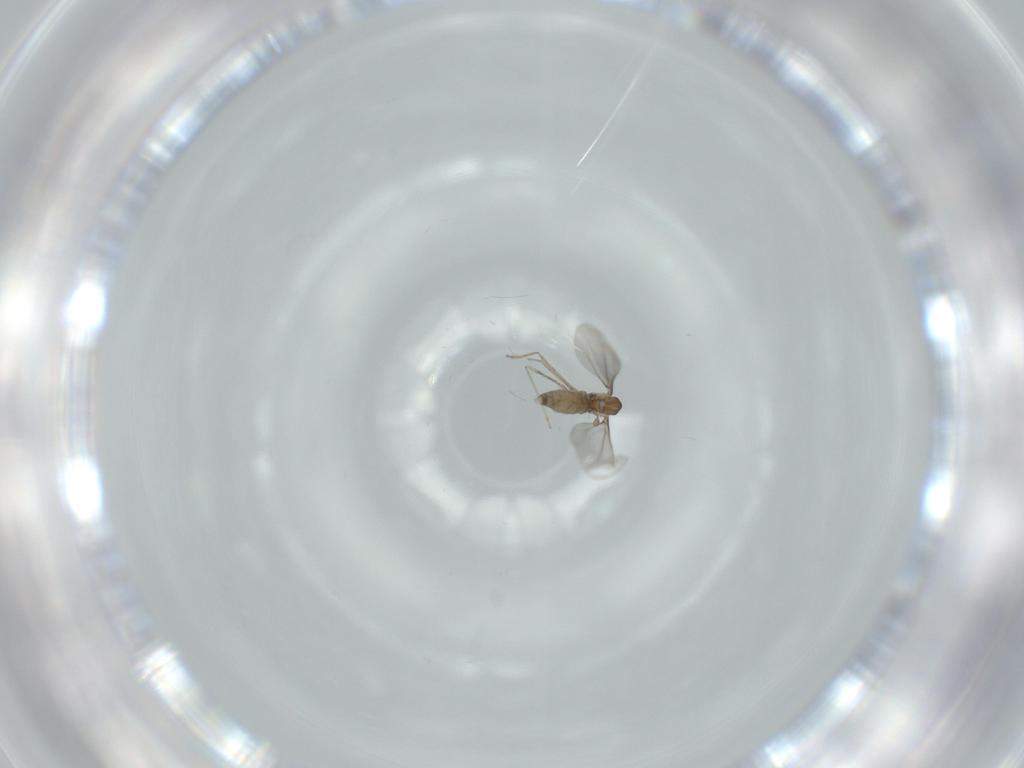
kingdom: Animalia
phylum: Arthropoda
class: Insecta
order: Diptera
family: Cecidomyiidae
